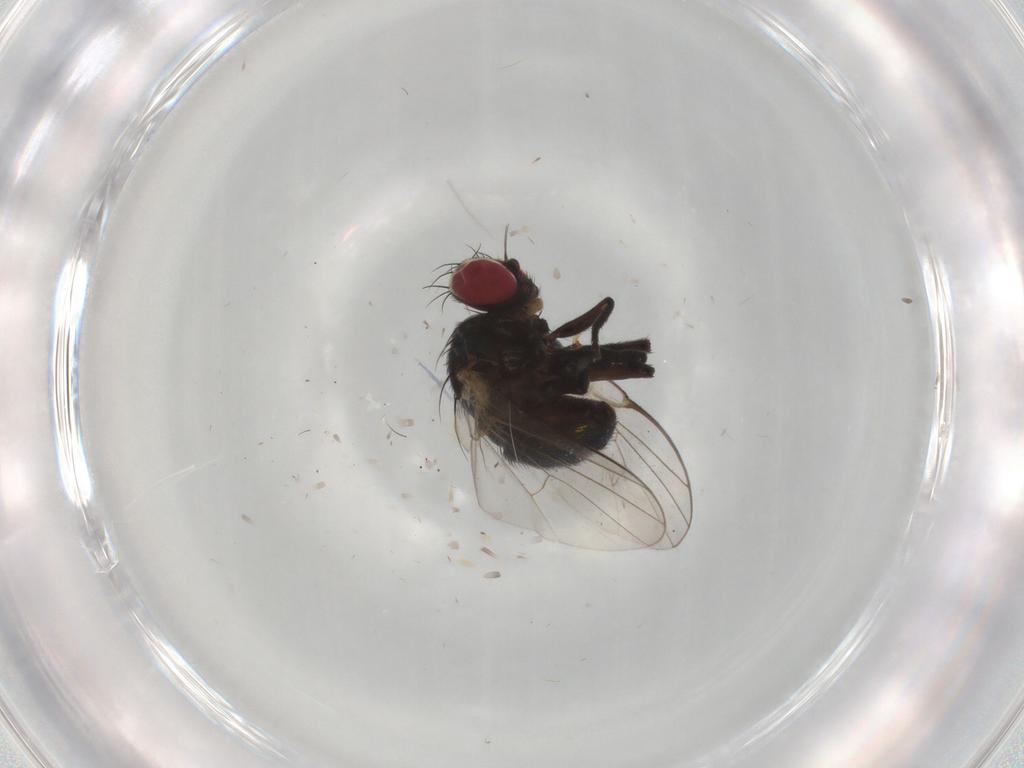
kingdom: Animalia
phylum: Arthropoda
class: Insecta
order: Diptera
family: Agromyzidae
